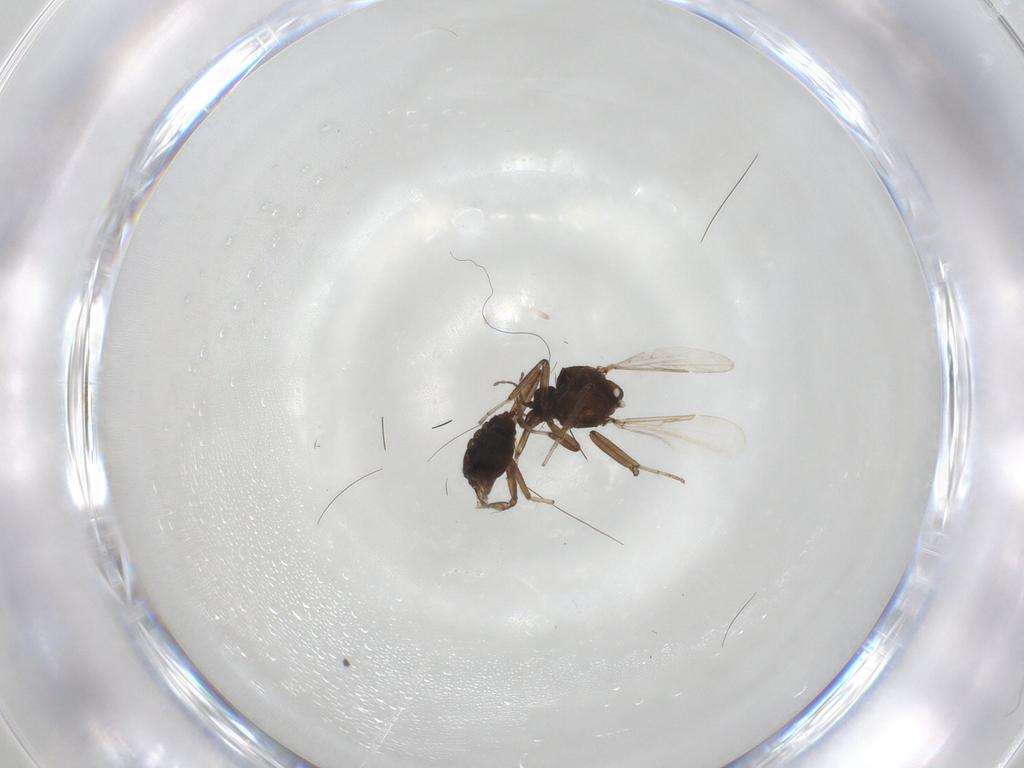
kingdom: Animalia
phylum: Arthropoda
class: Insecta
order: Diptera
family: Ceratopogonidae
